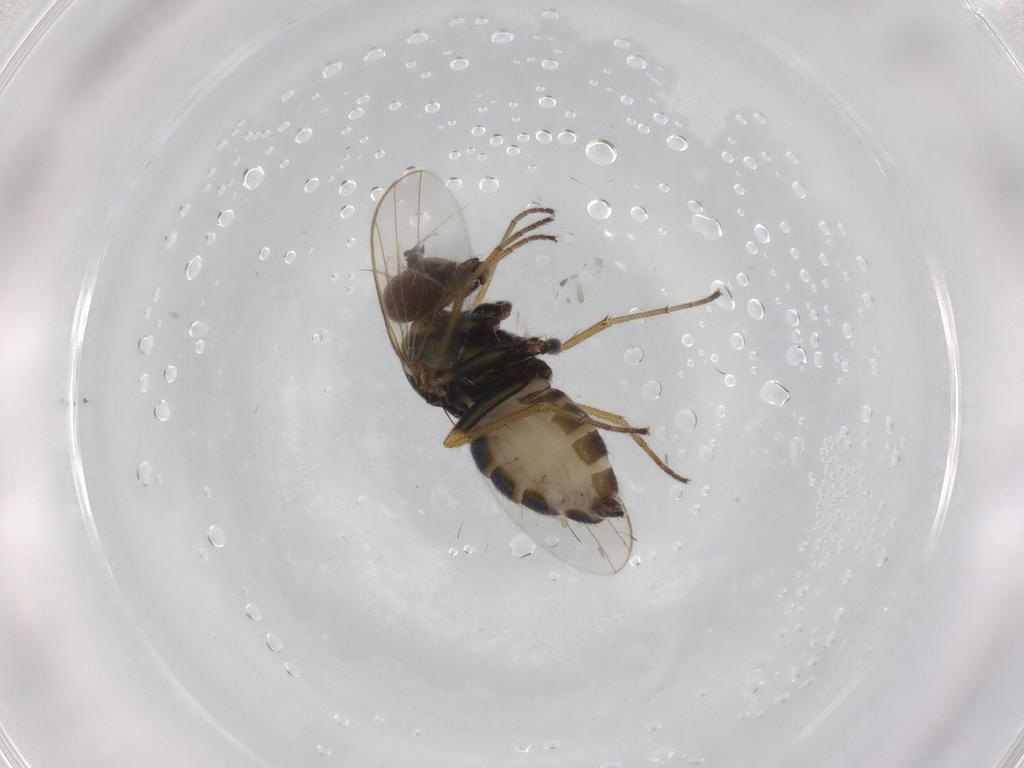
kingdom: Animalia
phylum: Arthropoda
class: Insecta
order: Diptera
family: Dolichopodidae
